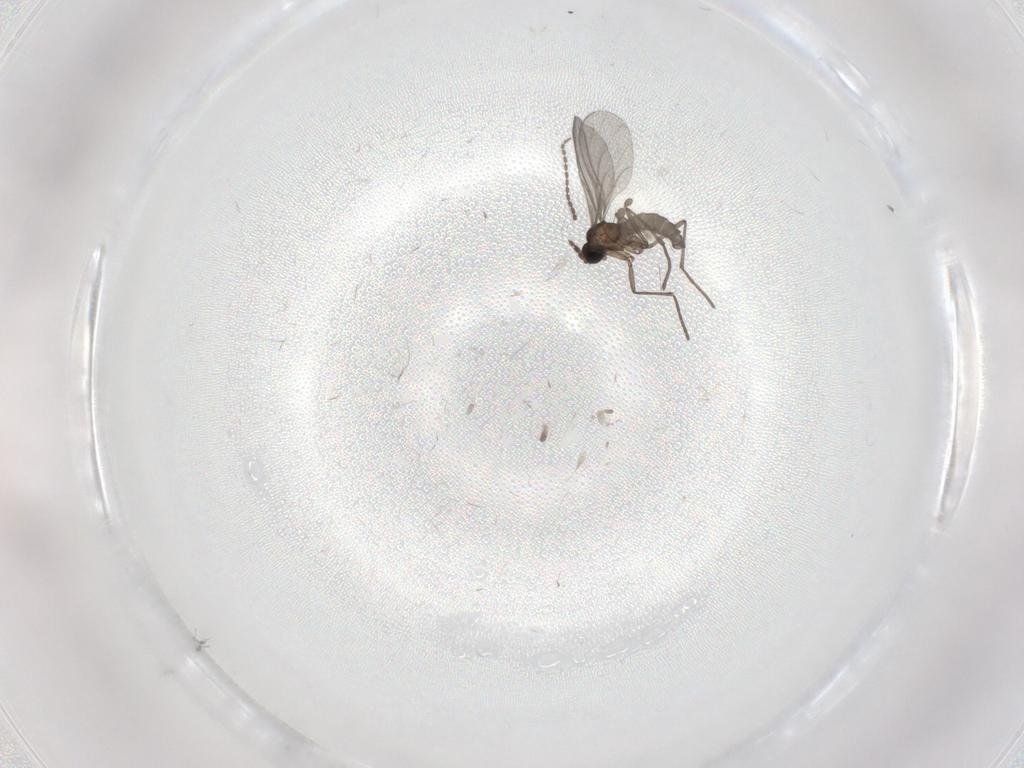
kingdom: Animalia
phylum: Arthropoda
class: Insecta
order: Diptera
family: Sciaridae
